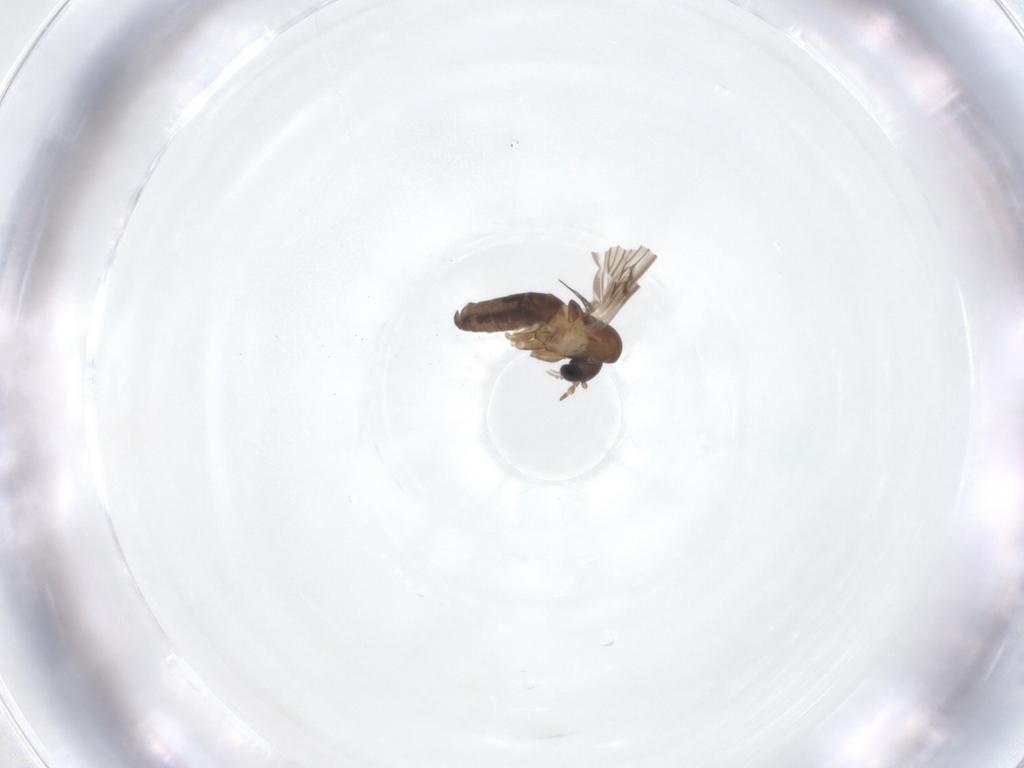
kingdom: Animalia
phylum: Arthropoda
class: Insecta
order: Diptera
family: Psychodidae
